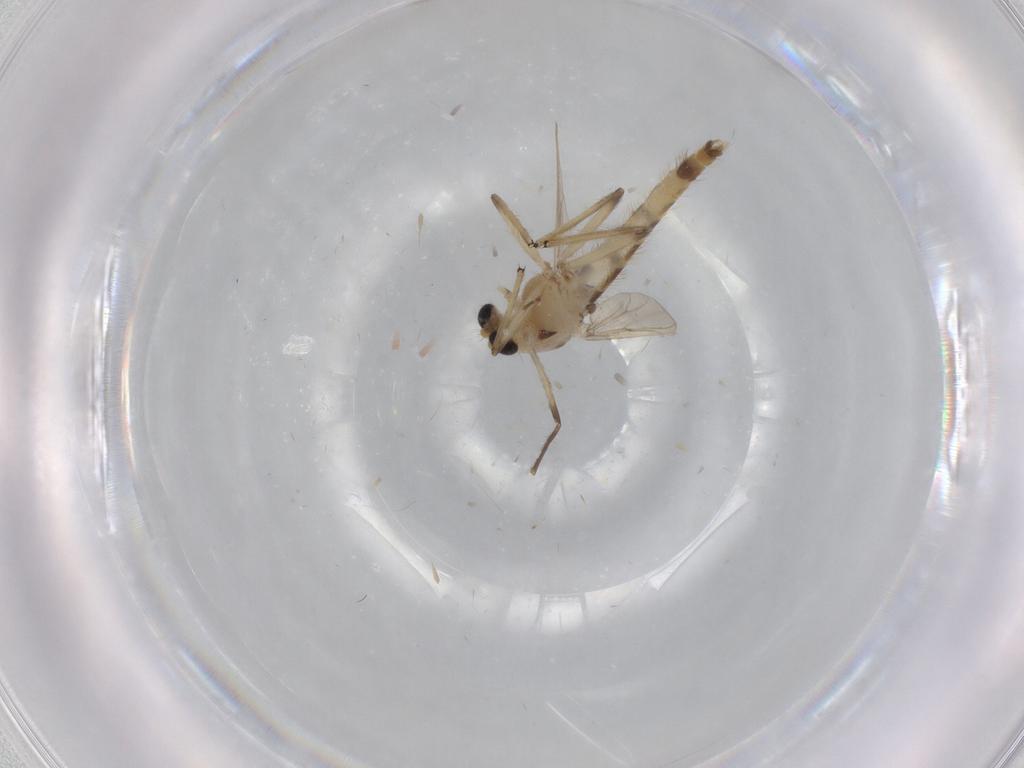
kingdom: Animalia
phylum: Arthropoda
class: Insecta
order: Diptera
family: Chironomidae
